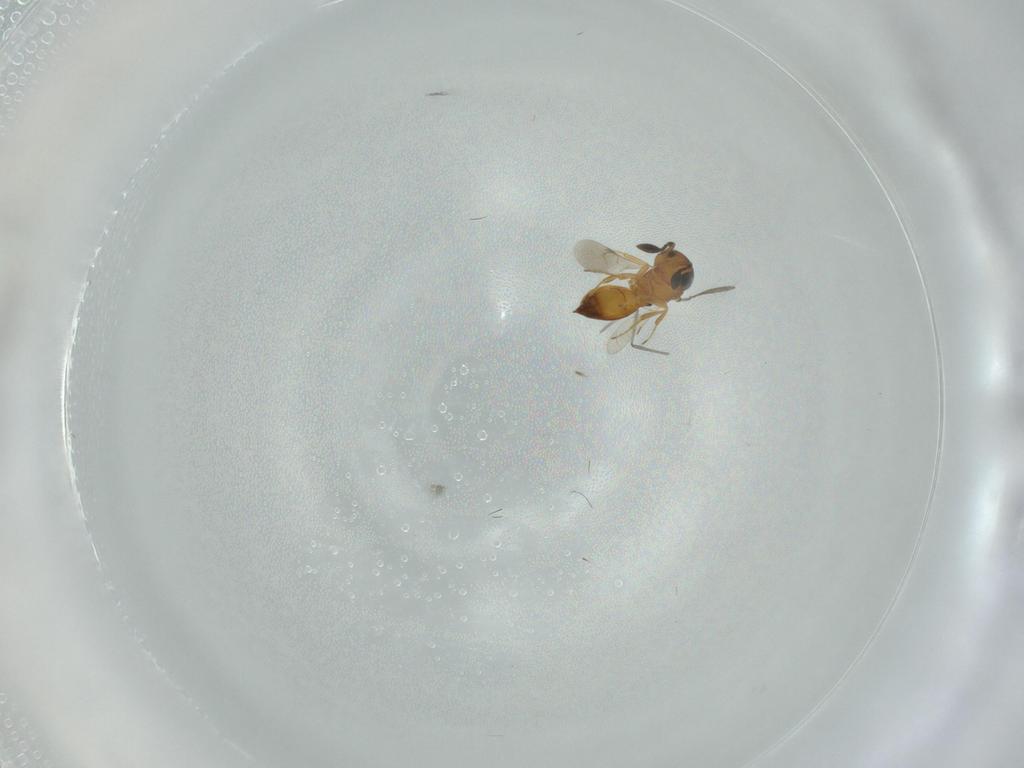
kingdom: Animalia
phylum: Arthropoda
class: Insecta
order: Hymenoptera
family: Scelionidae
